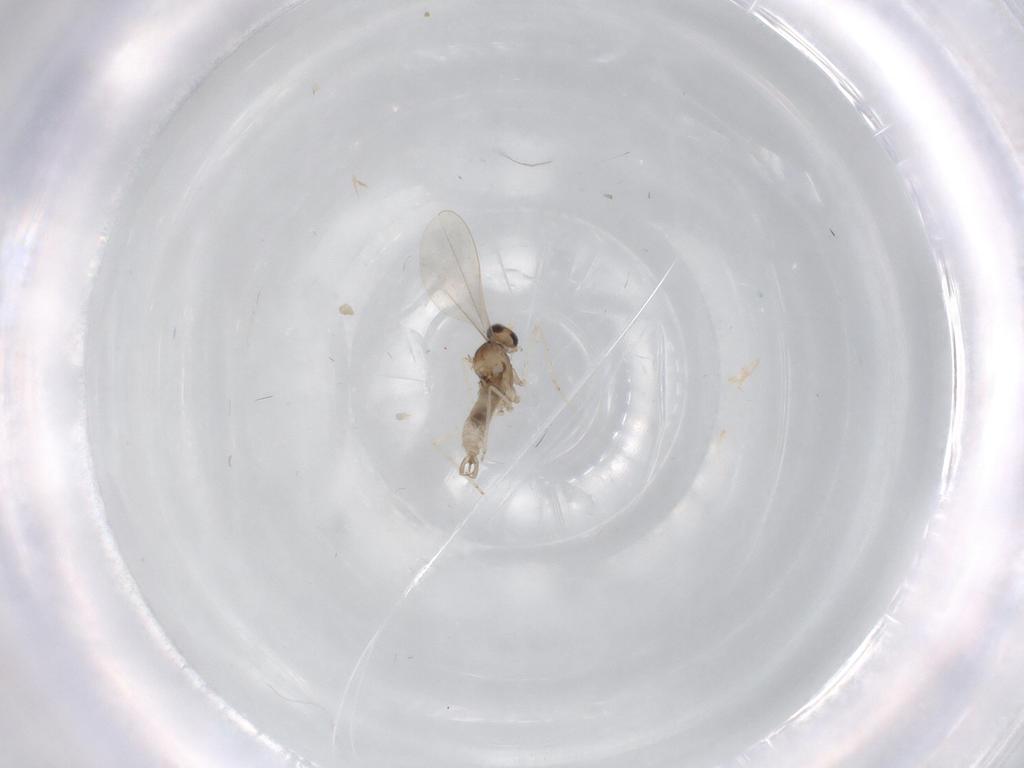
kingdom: Animalia
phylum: Arthropoda
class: Insecta
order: Diptera
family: Cecidomyiidae
